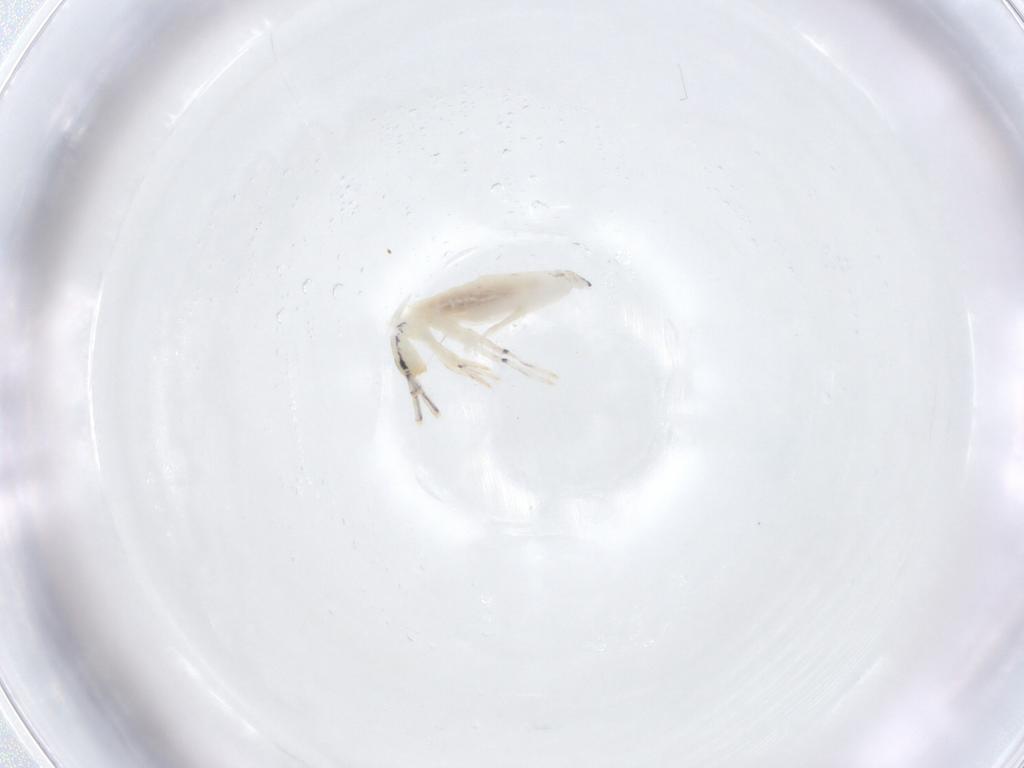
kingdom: Animalia
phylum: Arthropoda
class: Collembola
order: Entomobryomorpha
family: Entomobryidae
